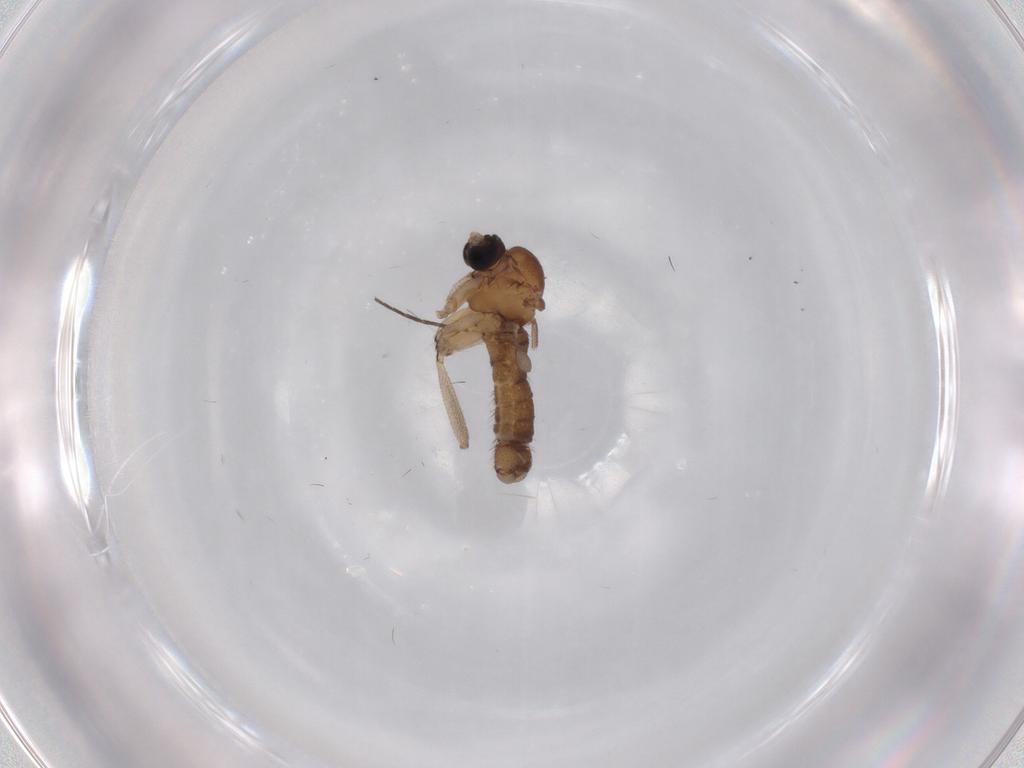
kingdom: Animalia
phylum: Arthropoda
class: Insecta
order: Diptera
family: Sciaridae
